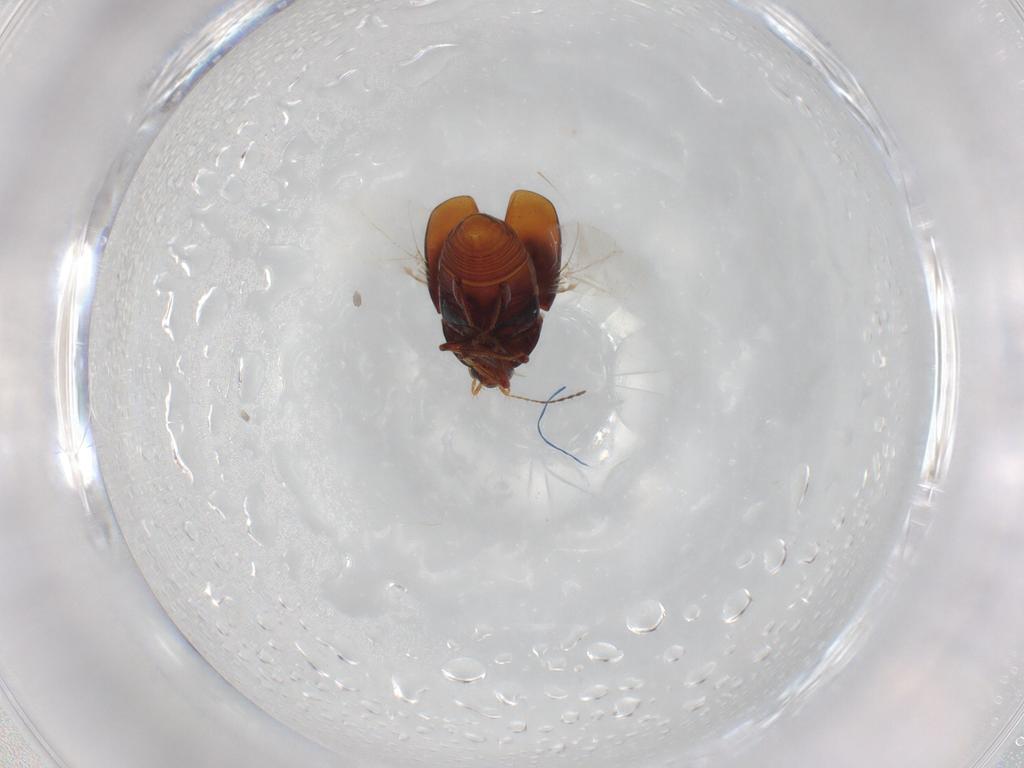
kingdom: Animalia
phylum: Arthropoda
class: Insecta
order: Coleoptera
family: Staphylinidae
